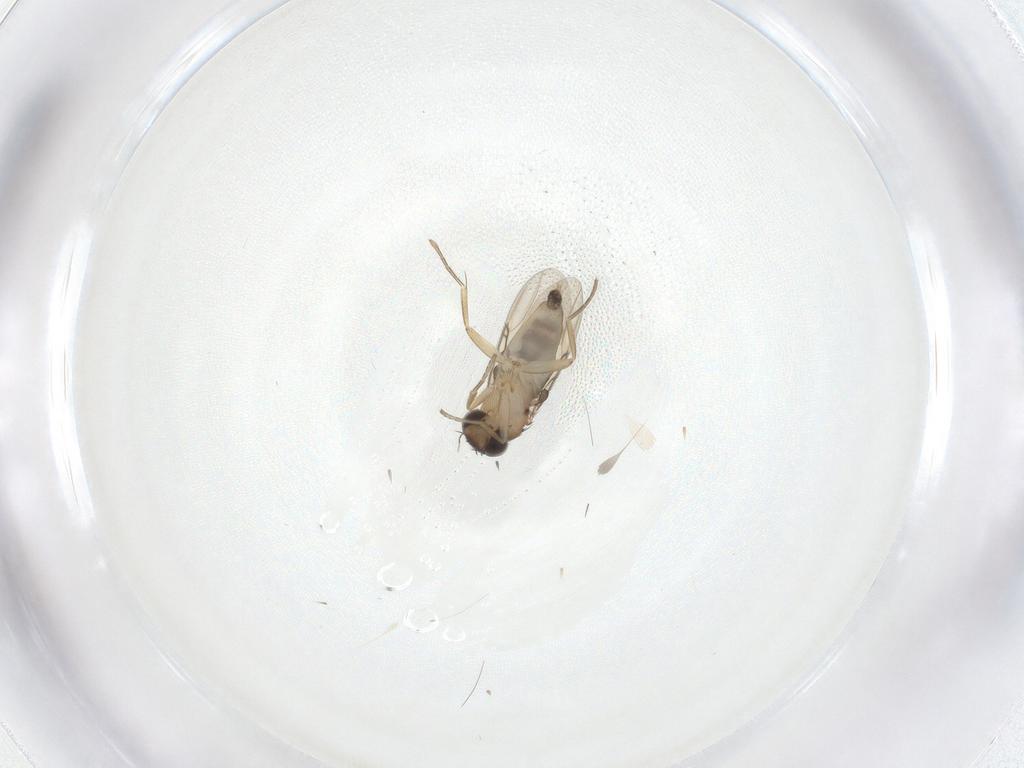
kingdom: Animalia
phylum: Arthropoda
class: Insecta
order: Diptera
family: Phoridae
